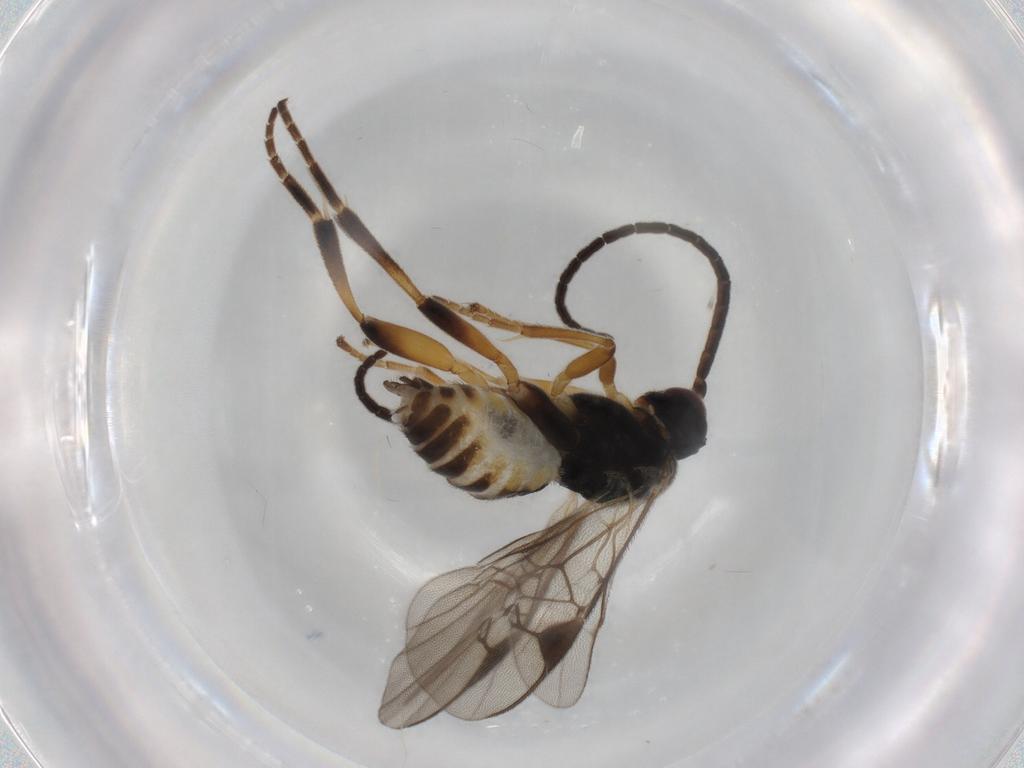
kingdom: Animalia
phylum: Arthropoda
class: Insecta
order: Hymenoptera
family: Braconidae
